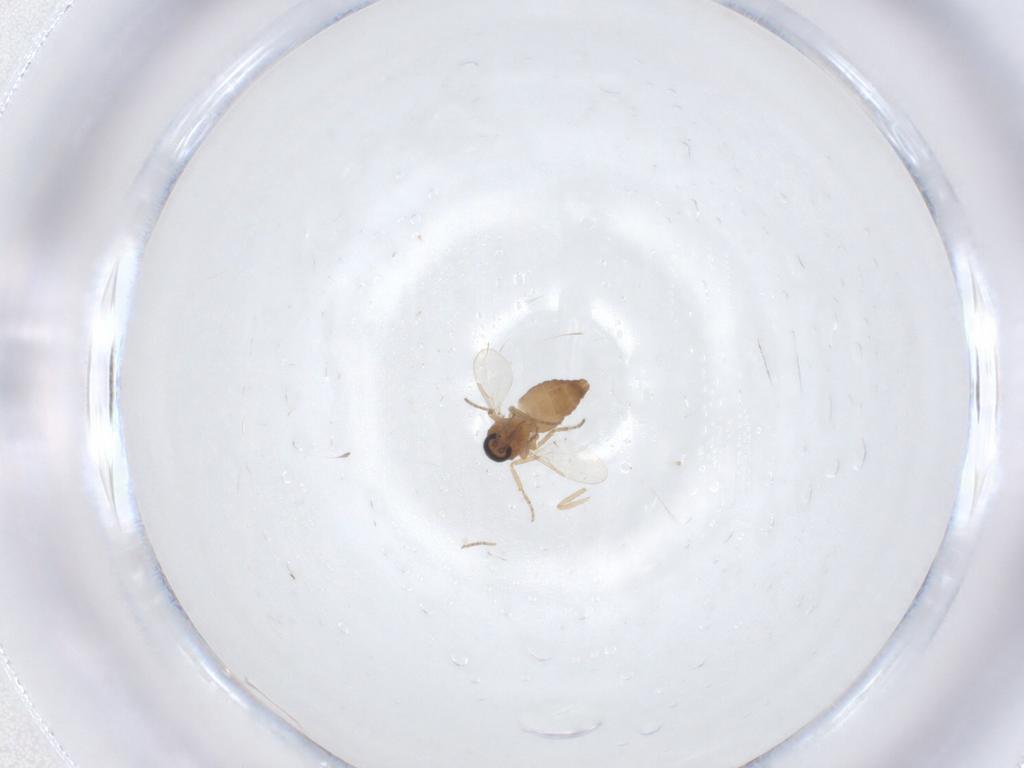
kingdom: Animalia
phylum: Arthropoda
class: Insecta
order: Diptera
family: Ceratopogonidae
